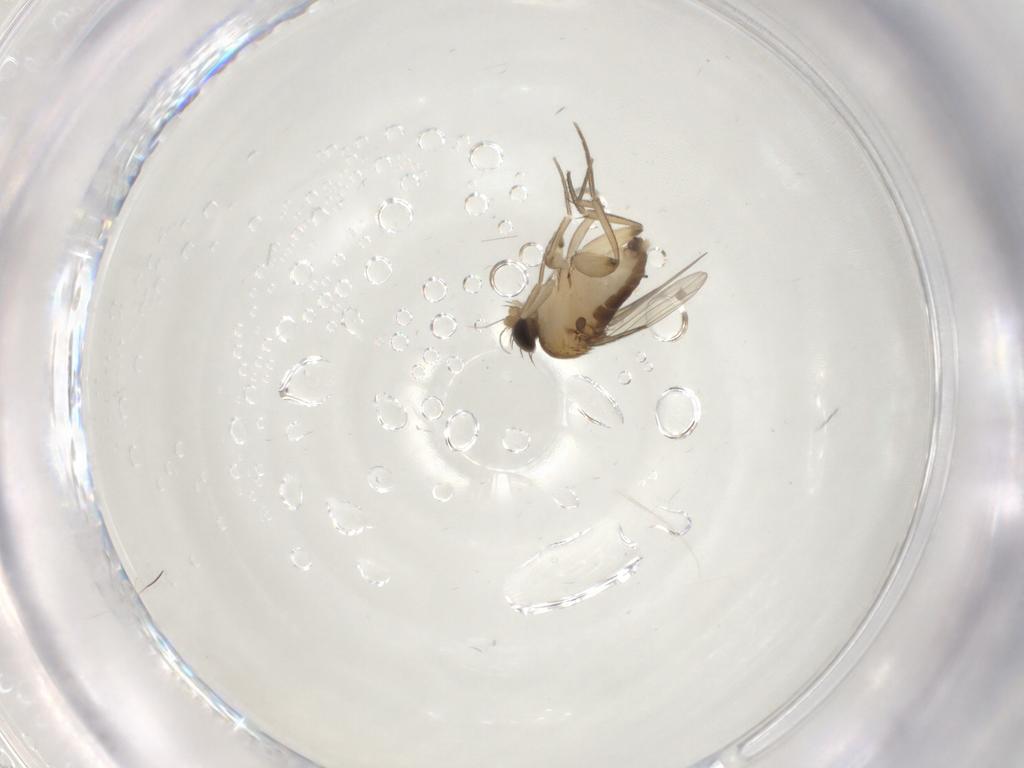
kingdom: Animalia
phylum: Arthropoda
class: Insecta
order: Diptera
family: Phoridae
